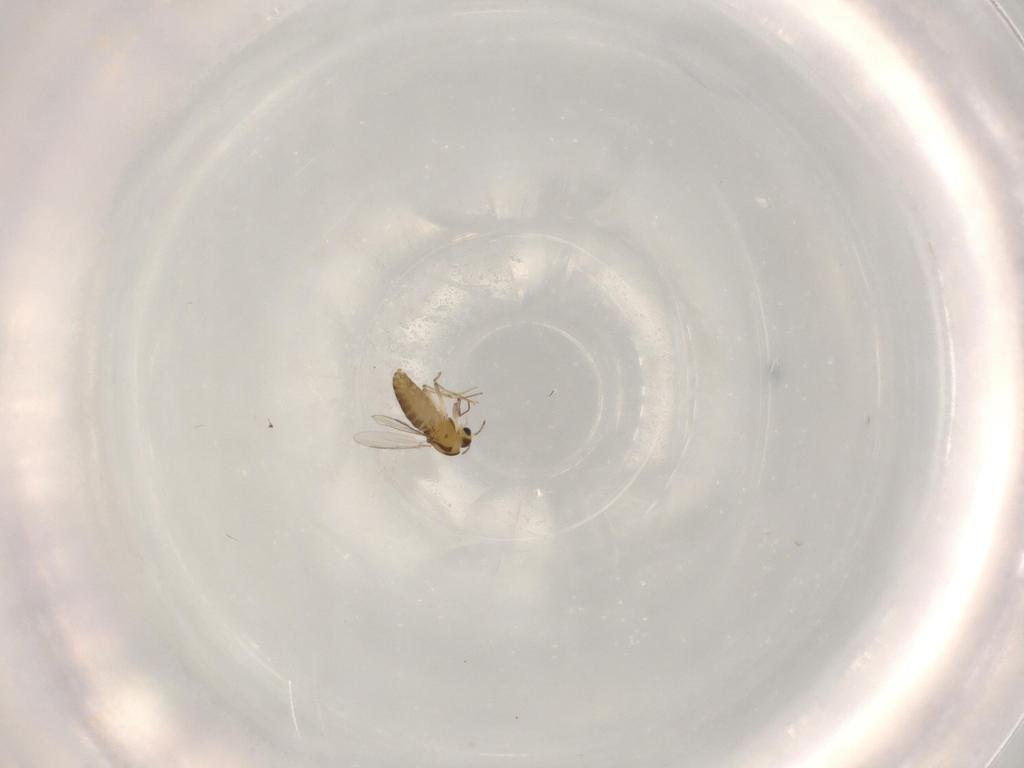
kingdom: Animalia
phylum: Arthropoda
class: Insecta
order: Diptera
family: Chironomidae
